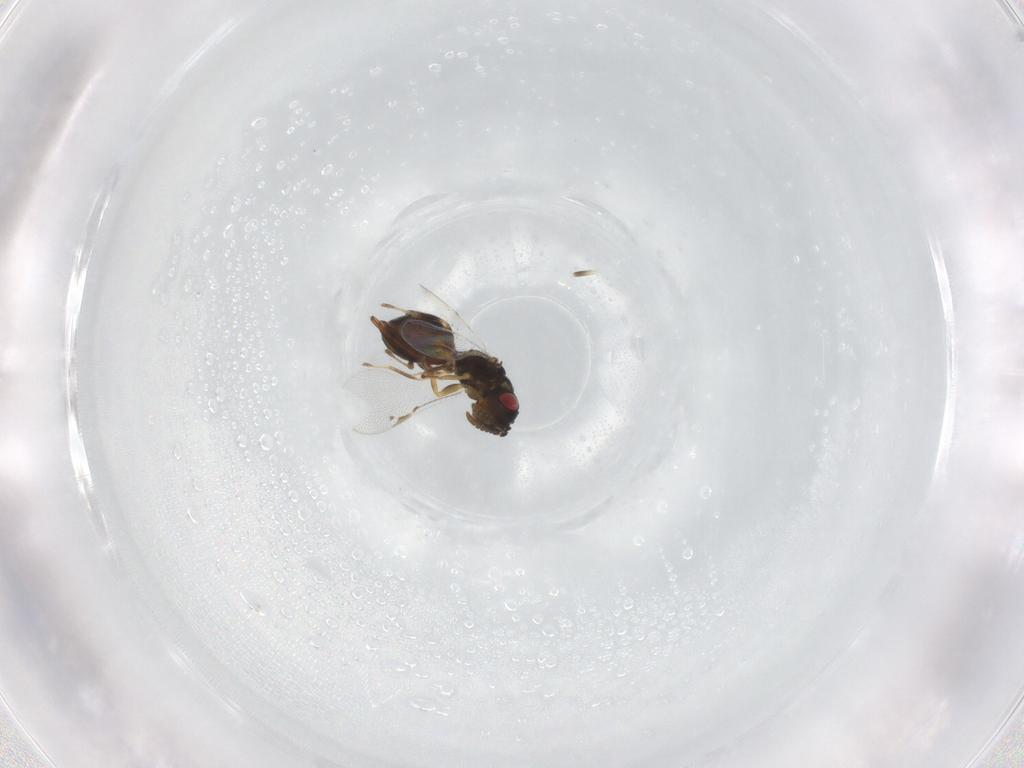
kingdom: Animalia
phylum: Arthropoda
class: Insecta
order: Hymenoptera
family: Eurytomidae
